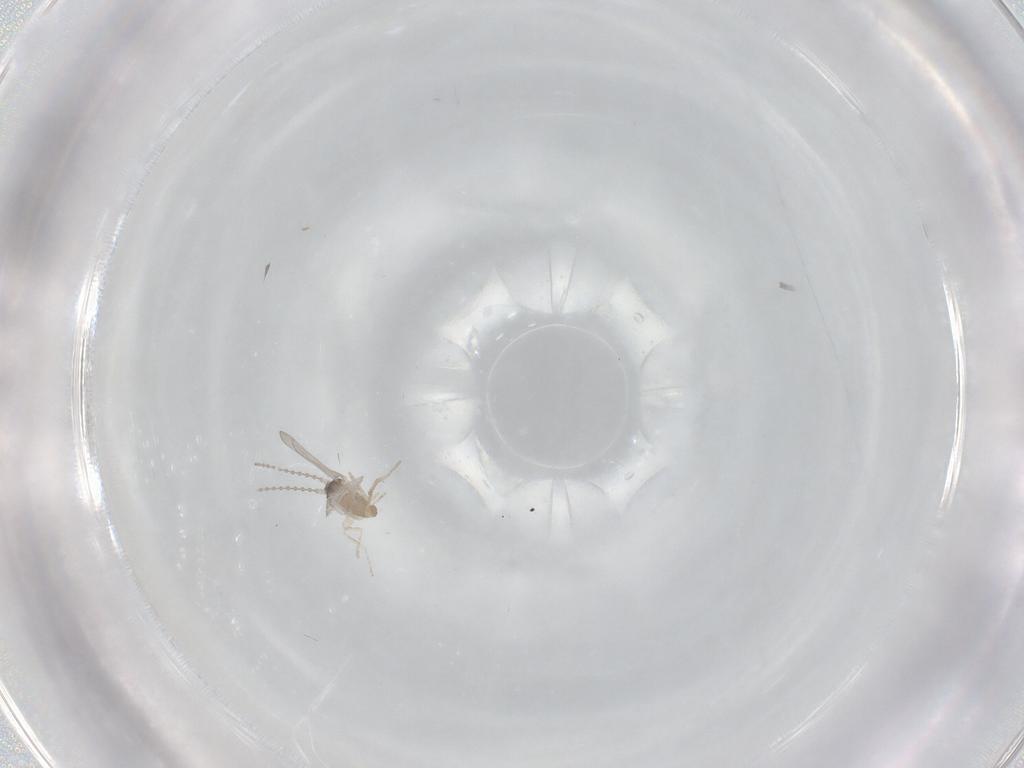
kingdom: Animalia
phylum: Arthropoda
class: Insecta
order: Diptera
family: Cecidomyiidae
